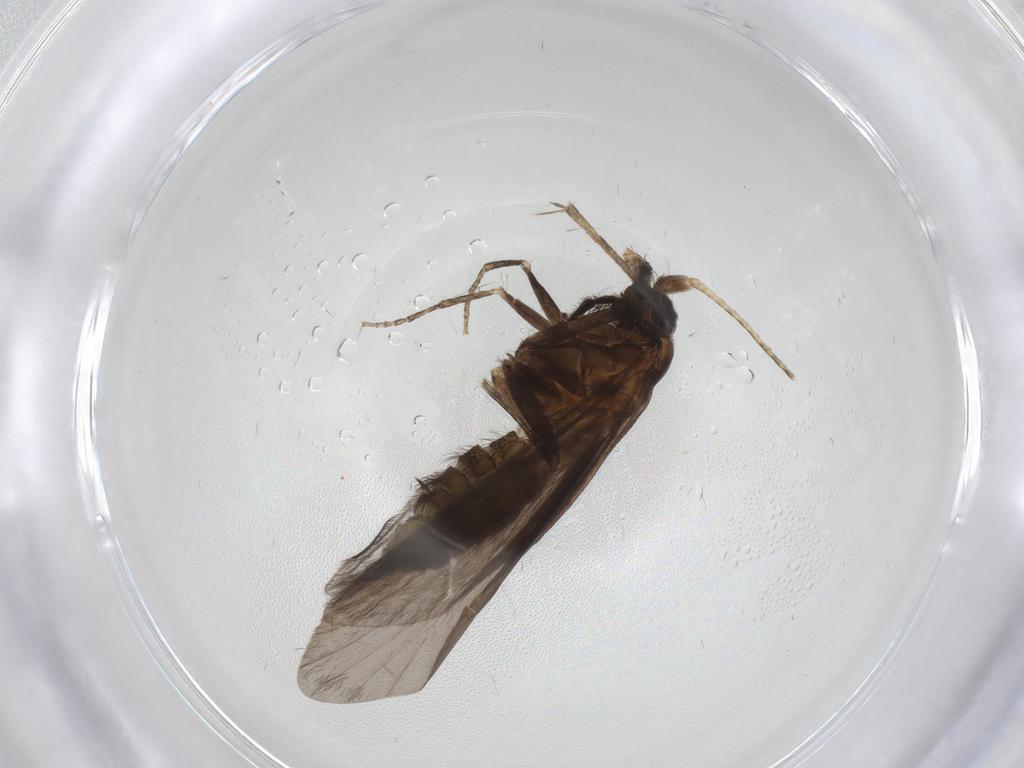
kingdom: Animalia
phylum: Arthropoda
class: Insecta
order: Trichoptera
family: Helicopsychidae
